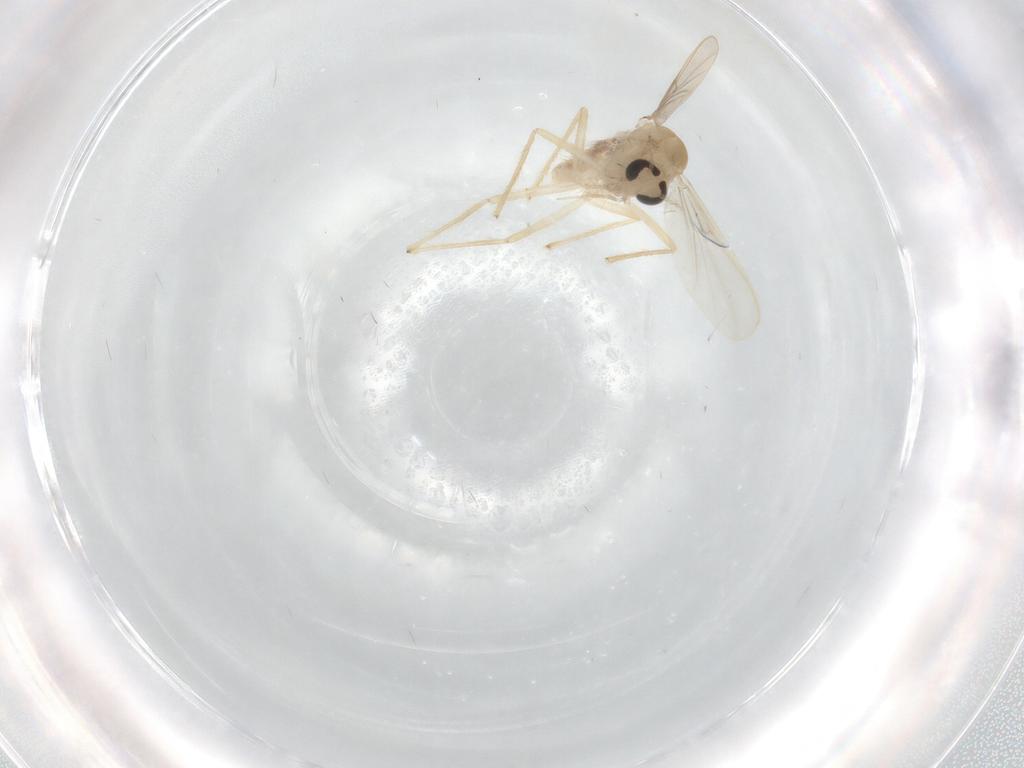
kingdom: Animalia
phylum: Arthropoda
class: Insecta
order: Diptera
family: Chironomidae
